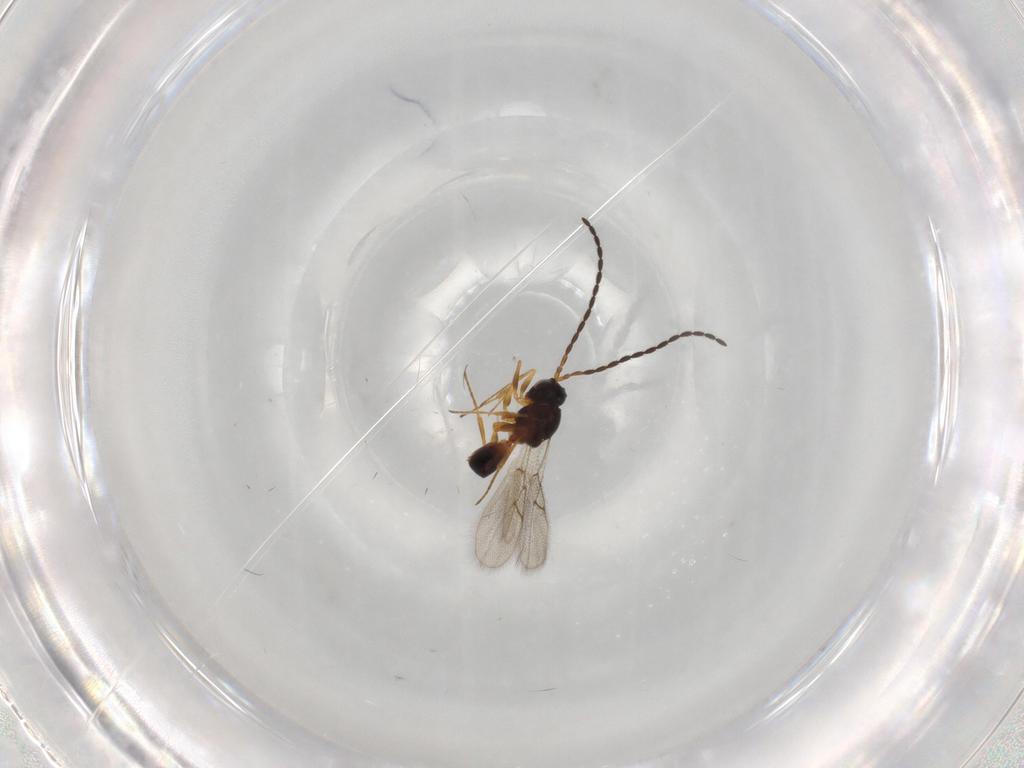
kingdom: Animalia
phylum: Arthropoda
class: Insecta
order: Hymenoptera
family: Figitidae
